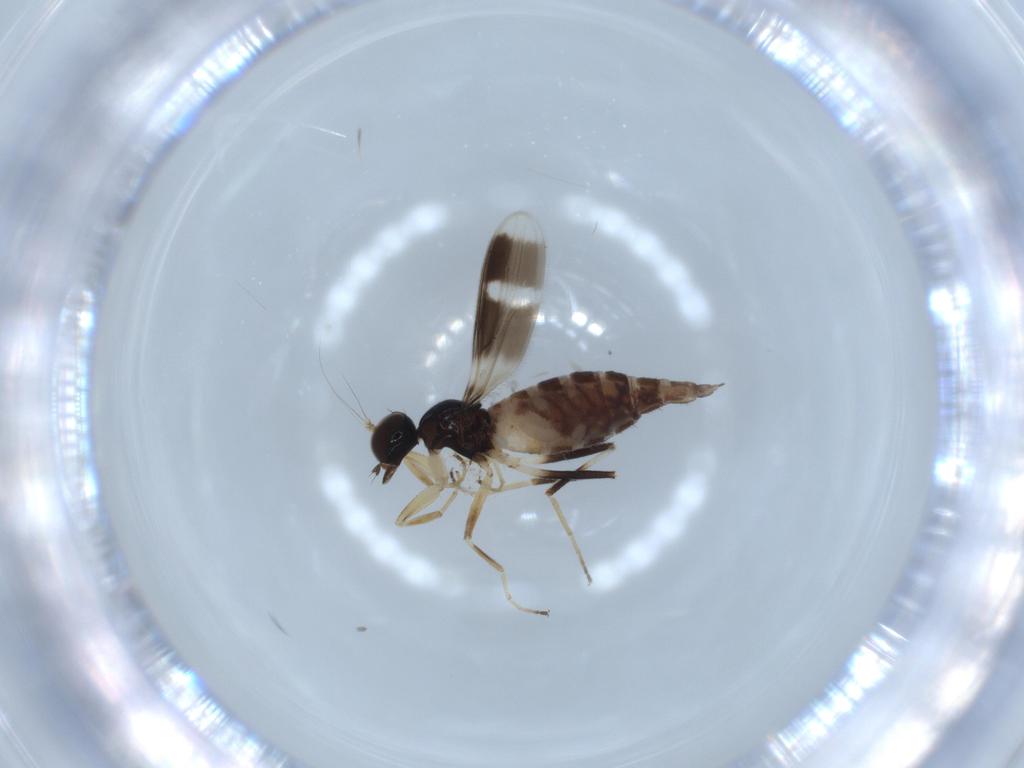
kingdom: Animalia
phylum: Arthropoda
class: Insecta
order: Diptera
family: Hybotidae
